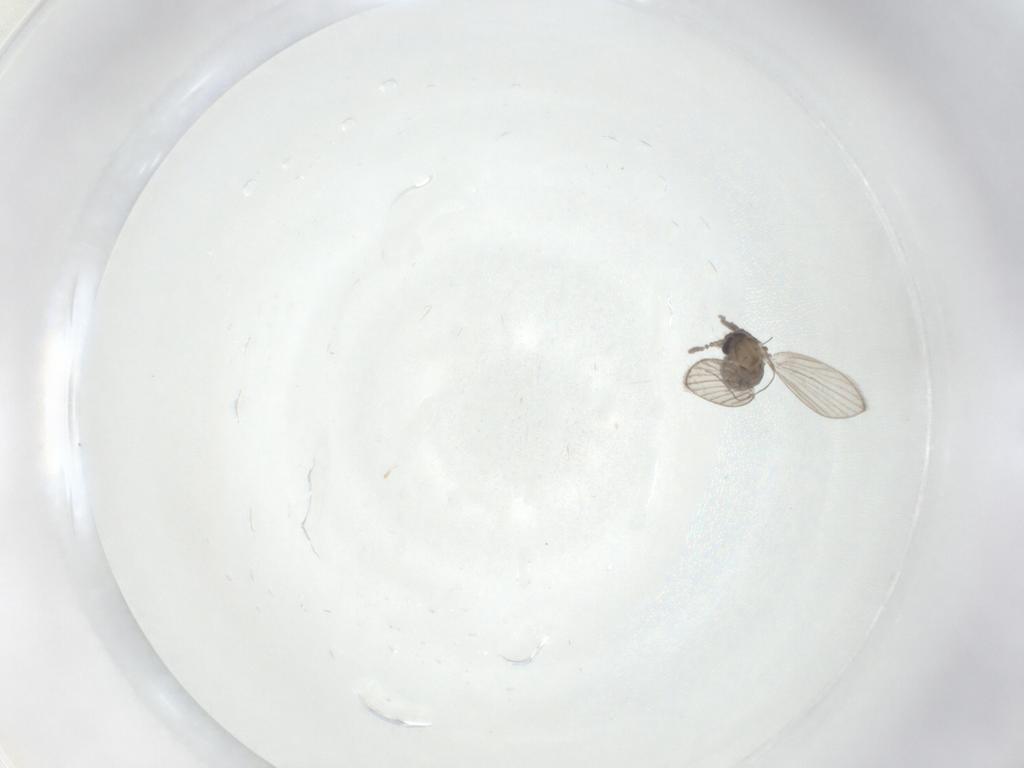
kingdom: Animalia
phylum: Arthropoda
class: Insecta
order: Diptera
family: Psychodidae
